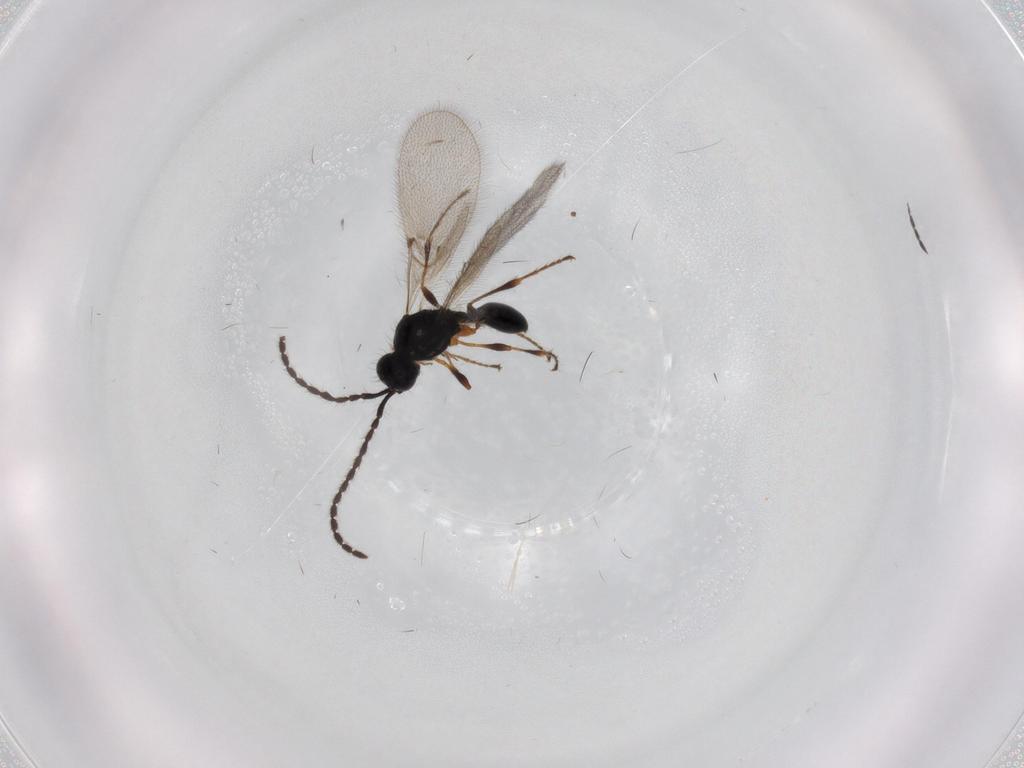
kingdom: Animalia
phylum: Arthropoda
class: Insecta
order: Hymenoptera
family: Diapriidae
